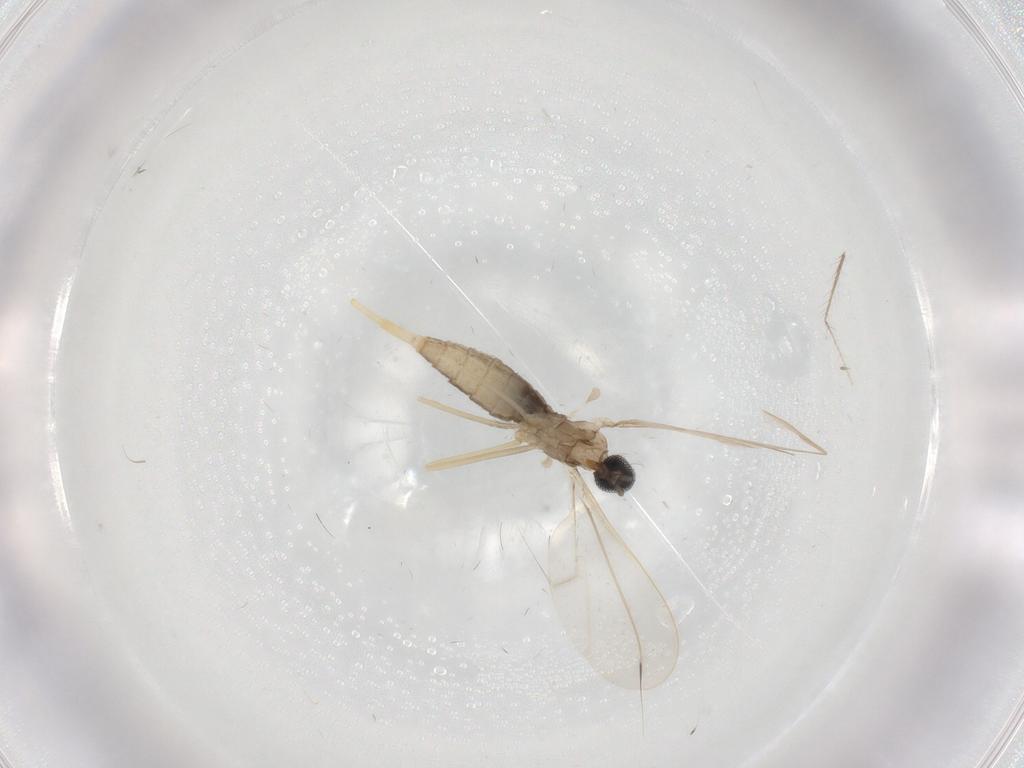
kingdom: Animalia
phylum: Arthropoda
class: Insecta
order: Diptera
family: Cecidomyiidae
